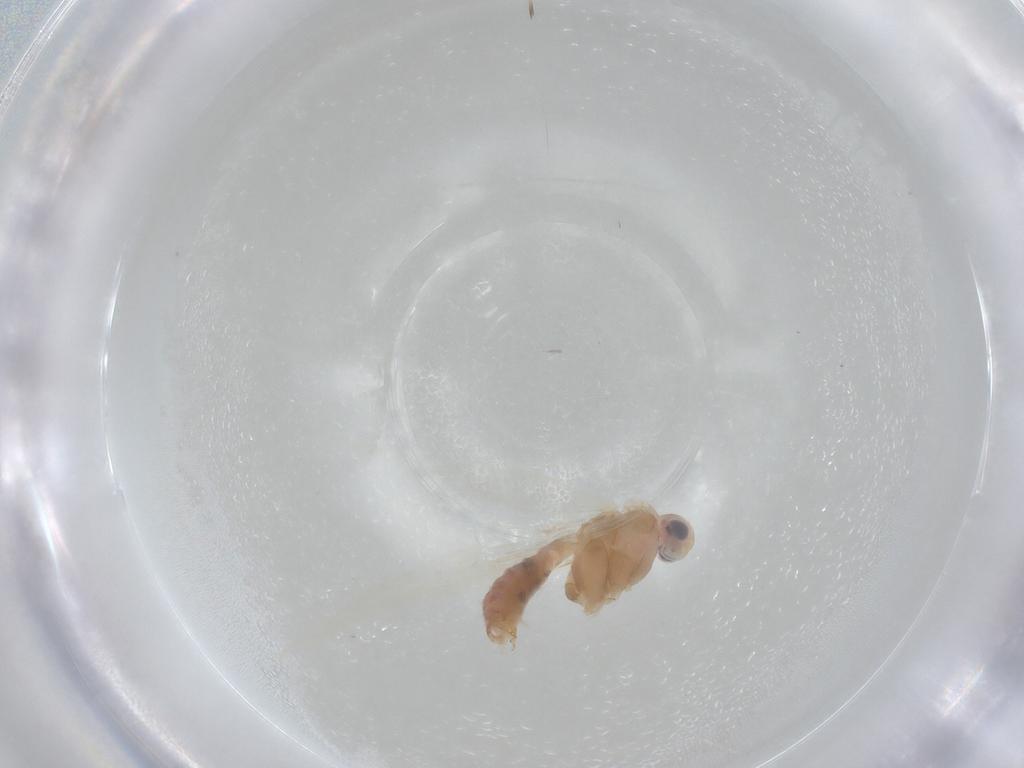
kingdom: Animalia
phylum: Arthropoda
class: Insecta
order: Lepidoptera
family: Coleophoridae
